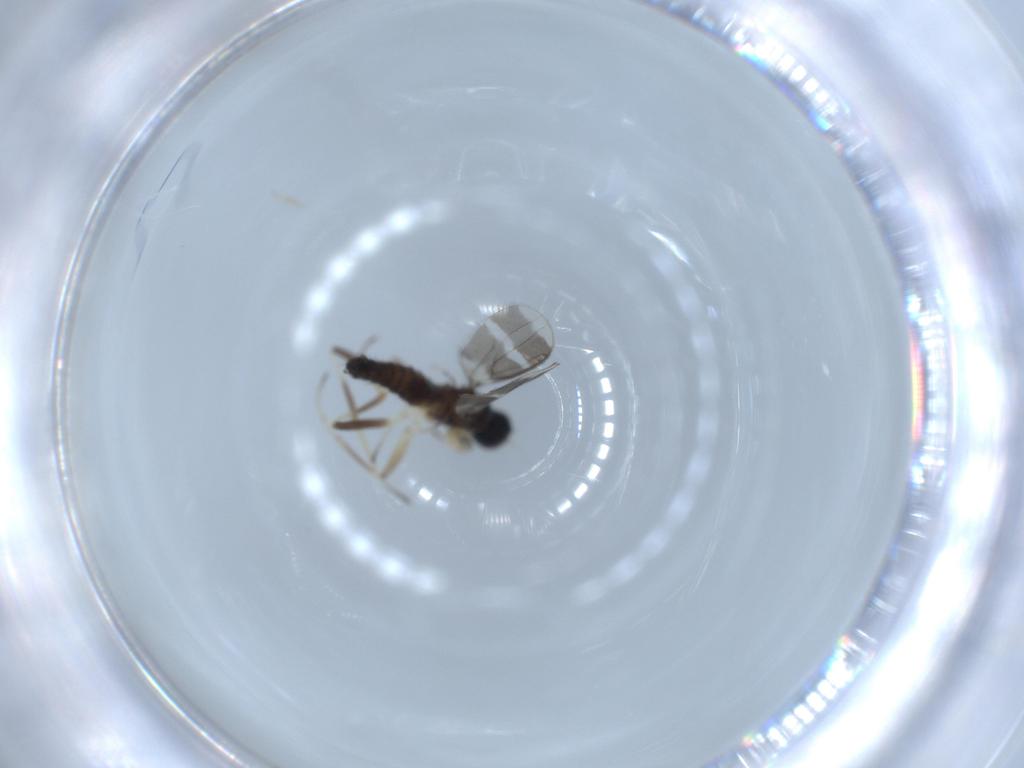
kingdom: Animalia
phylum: Arthropoda
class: Insecta
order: Diptera
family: Hybotidae
